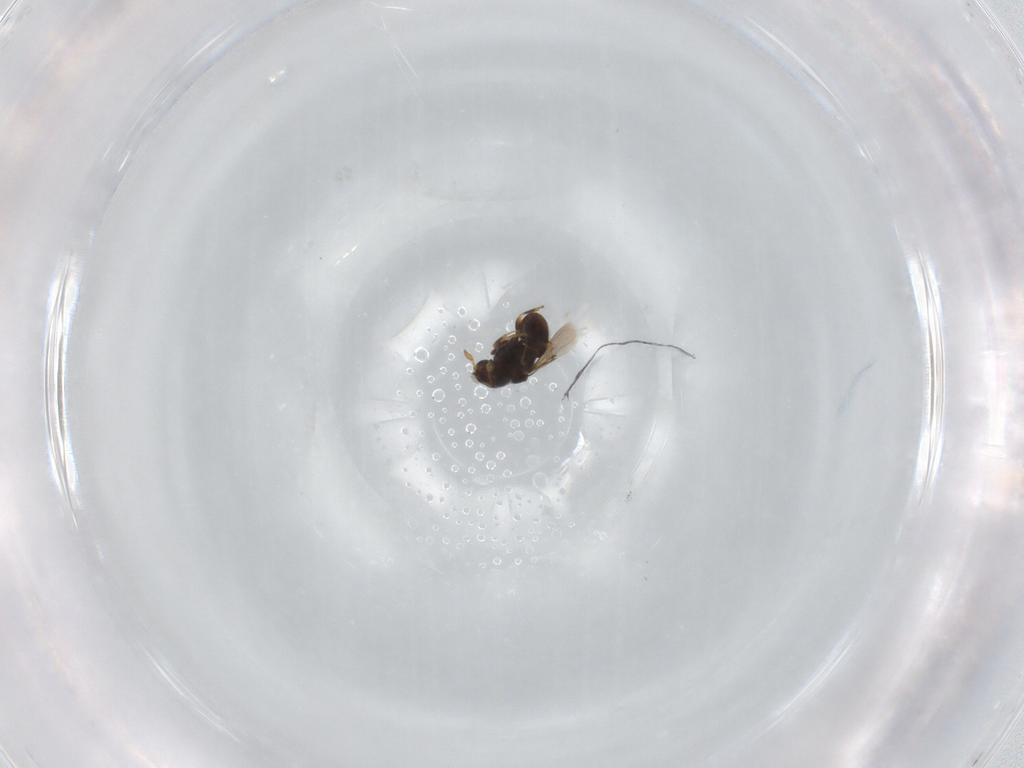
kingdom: Animalia
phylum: Arthropoda
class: Insecta
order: Hymenoptera
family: Scelionidae
